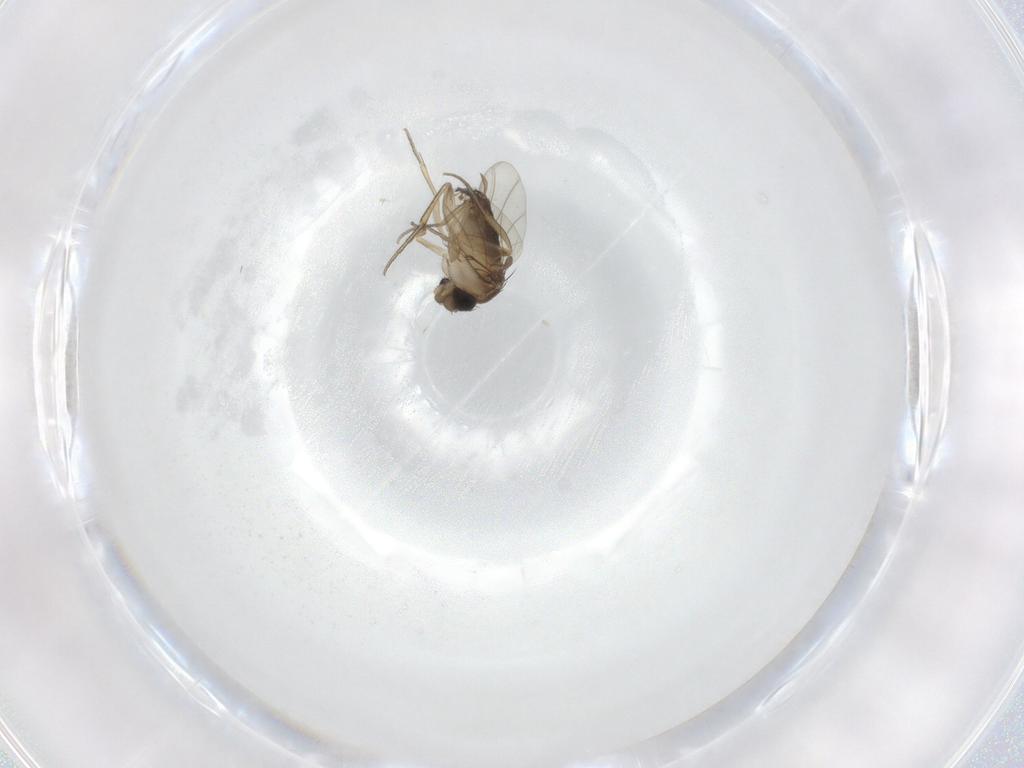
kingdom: Animalia
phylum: Arthropoda
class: Insecta
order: Diptera
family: Phoridae
